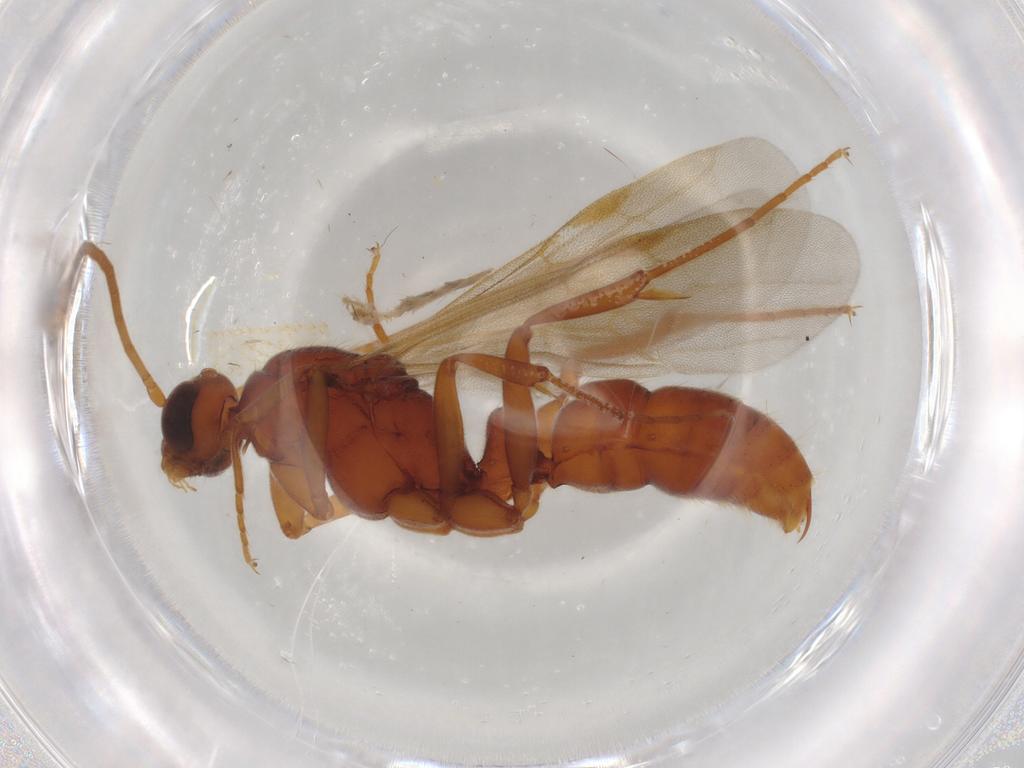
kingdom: Animalia
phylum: Arthropoda
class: Insecta
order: Hymenoptera
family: Formicidae
